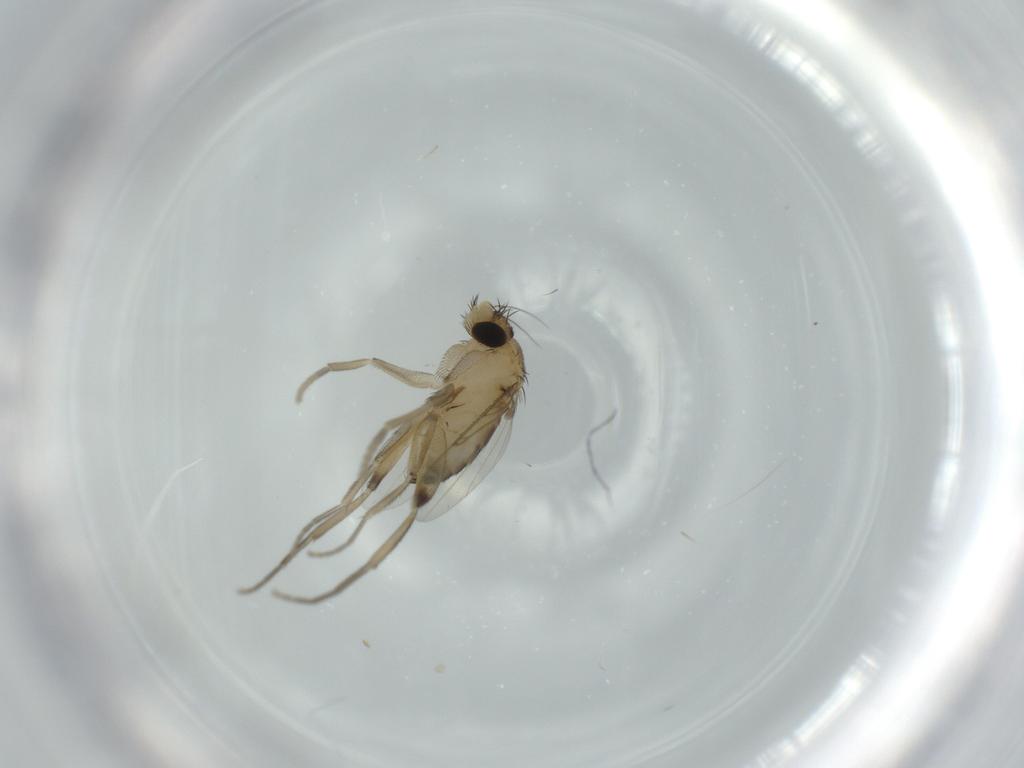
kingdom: Animalia
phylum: Arthropoda
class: Insecta
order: Diptera
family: Phoridae
